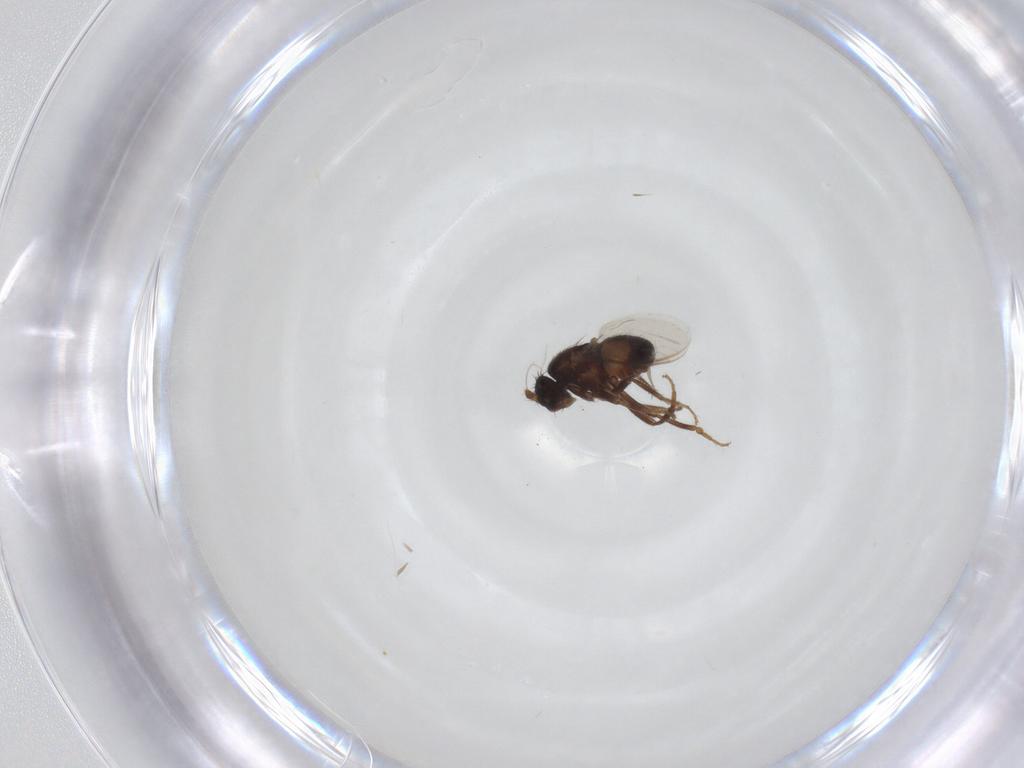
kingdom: Animalia
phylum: Arthropoda
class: Insecta
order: Diptera
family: Sphaeroceridae
